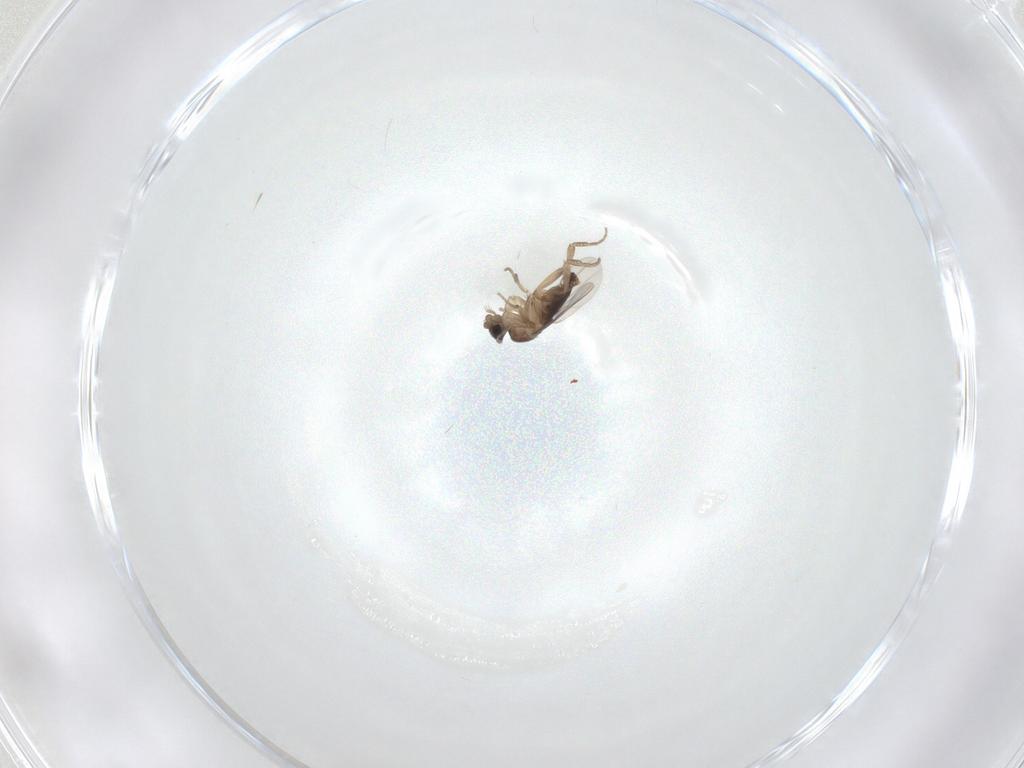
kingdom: Animalia
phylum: Arthropoda
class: Insecta
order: Diptera
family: Phoridae
